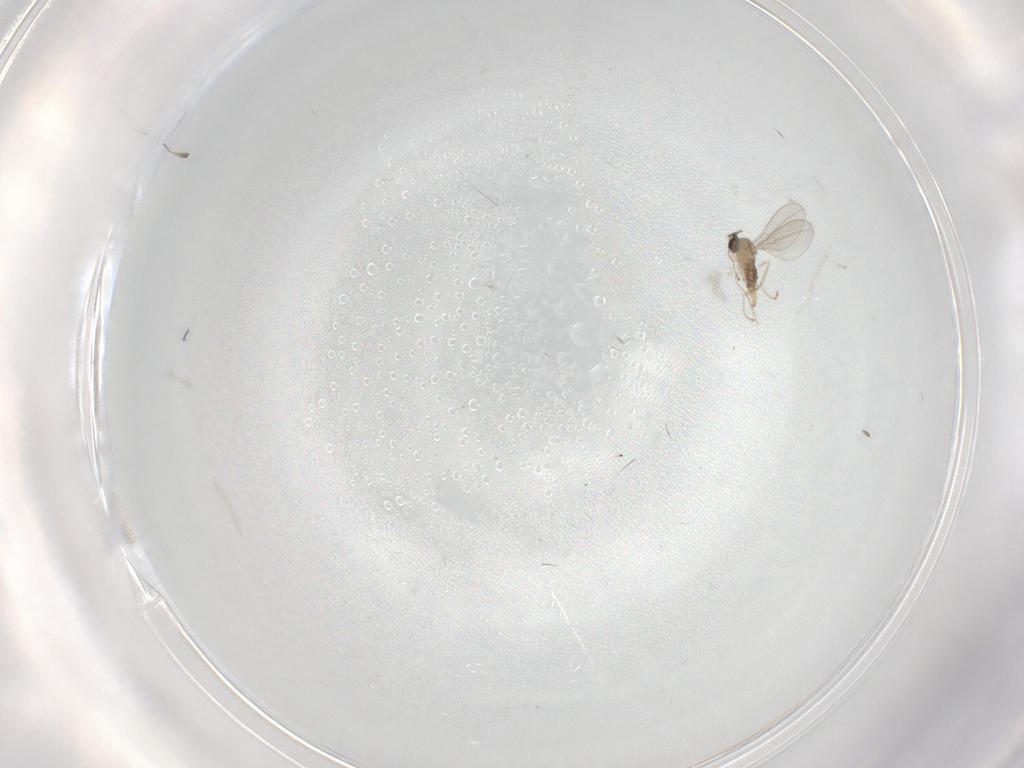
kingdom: Animalia
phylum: Arthropoda
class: Insecta
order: Diptera
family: Cecidomyiidae
